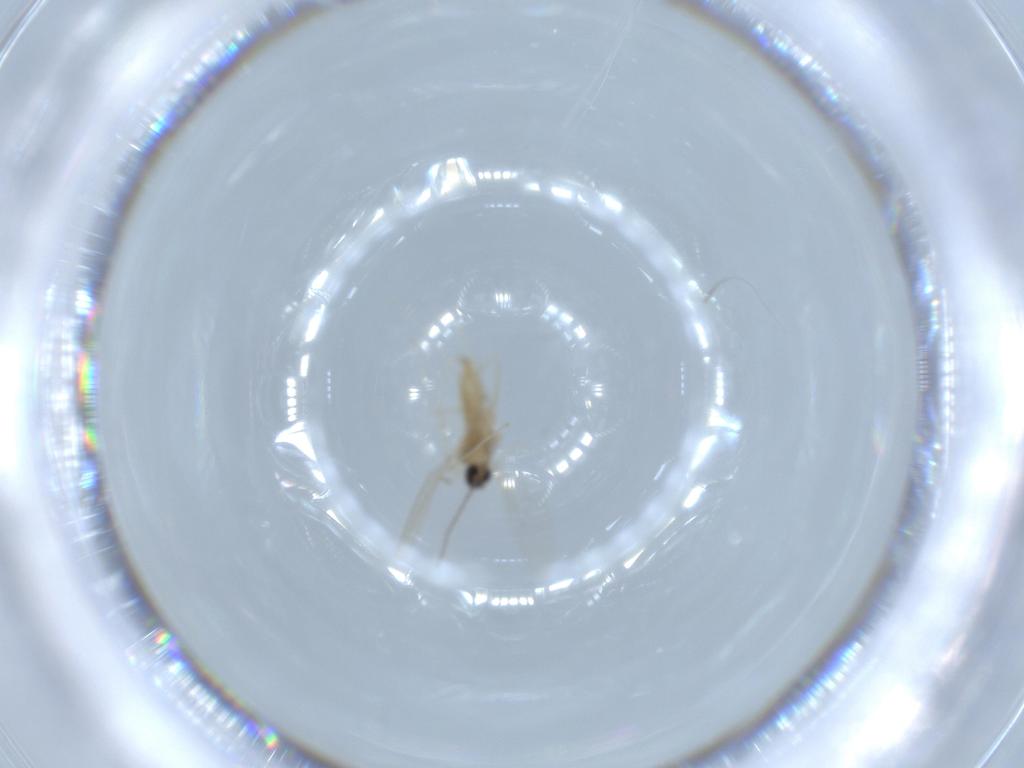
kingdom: Animalia
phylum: Arthropoda
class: Insecta
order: Diptera
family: Cecidomyiidae
